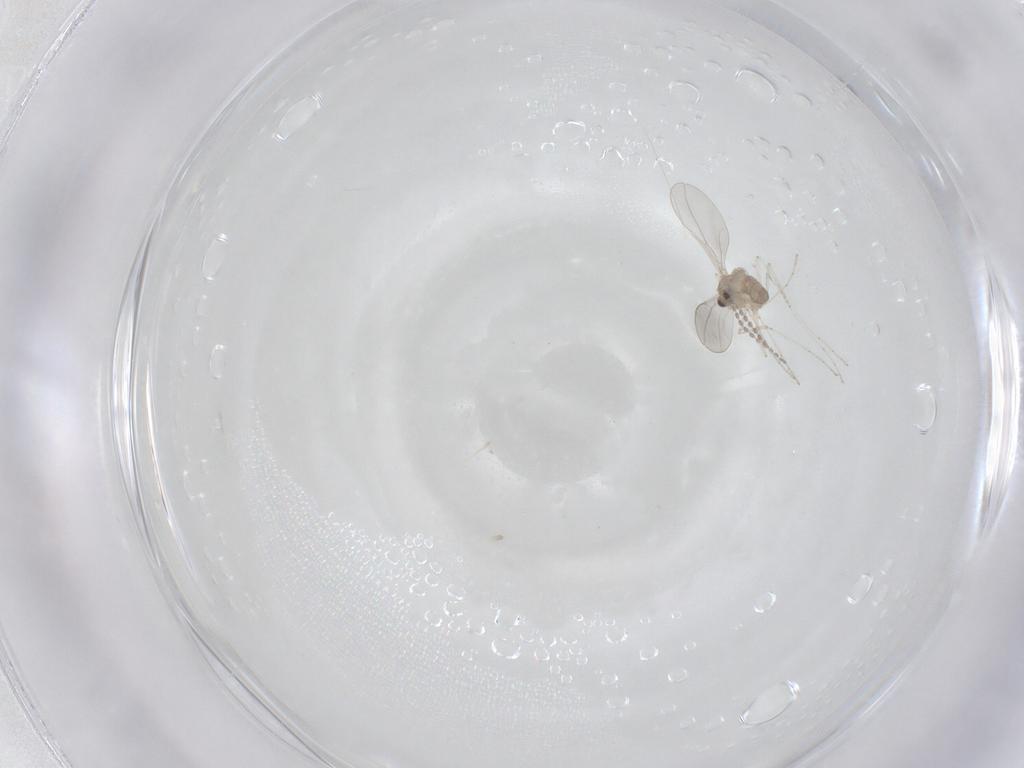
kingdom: Animalia
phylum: Arthropoda
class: Insecta
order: Diptera
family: Cecidomyiidae
